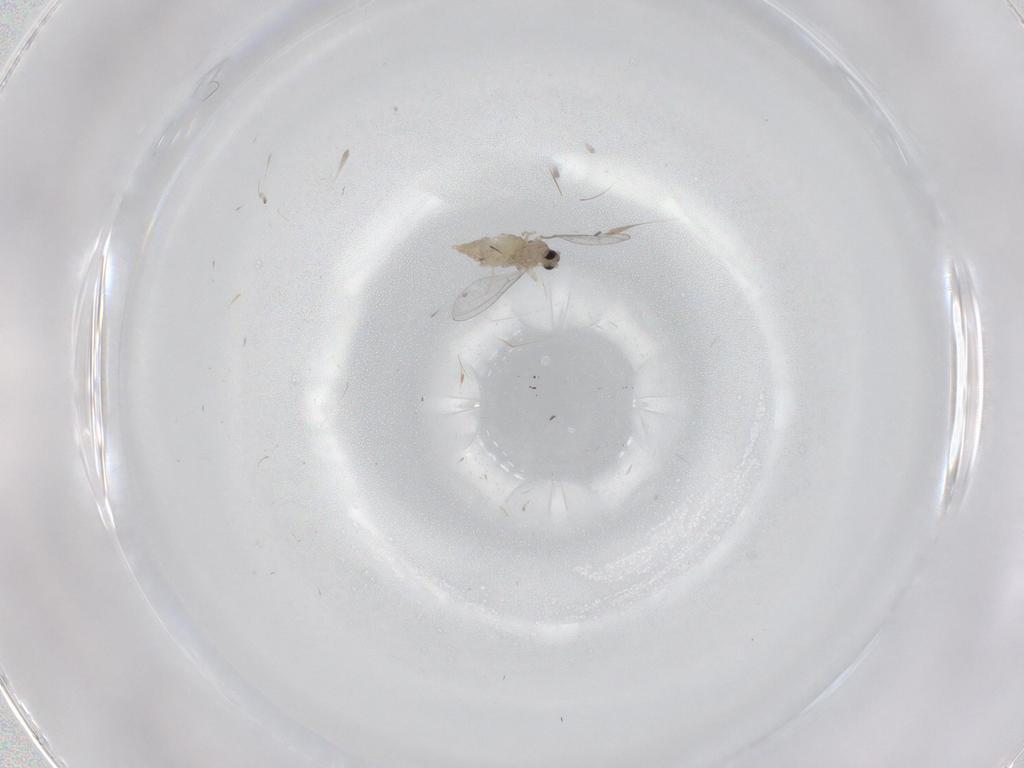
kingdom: Animalia
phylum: Arthropoda
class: Insecta
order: Diptera
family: Cecidomyiidae
